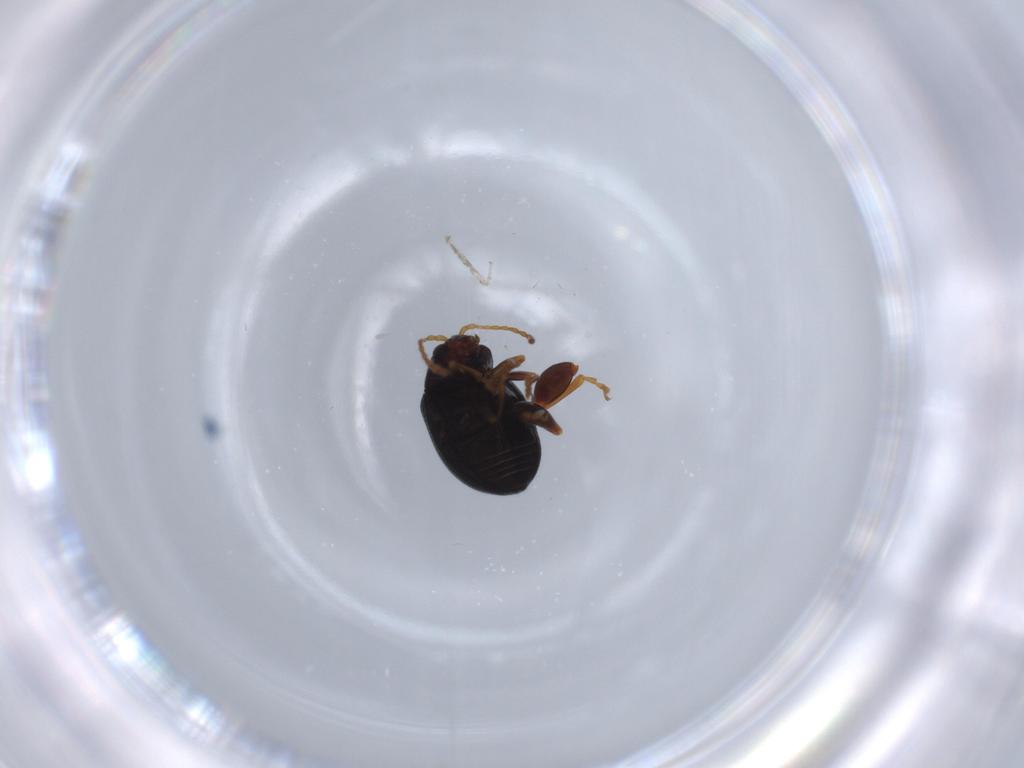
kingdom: Animalia
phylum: Arthropoda
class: Insecta
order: Coleoptera
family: Chrysomelidae
